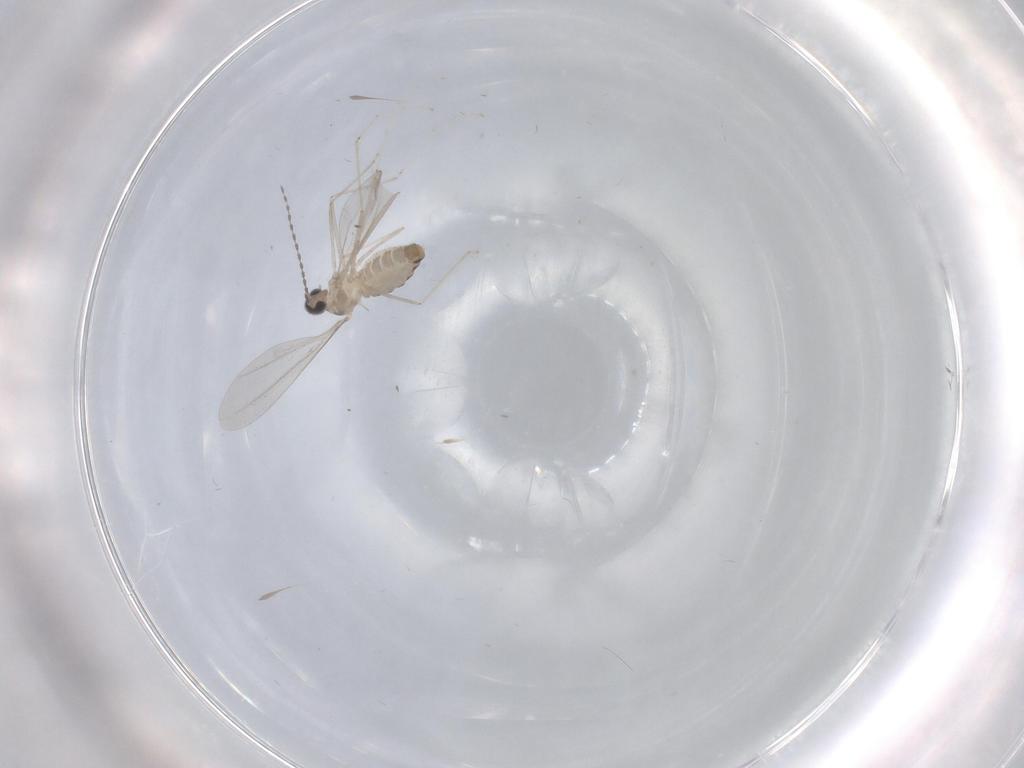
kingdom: Animalia
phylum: Arthropoda
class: Insecta
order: Diptera
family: Cecidomyiidae
